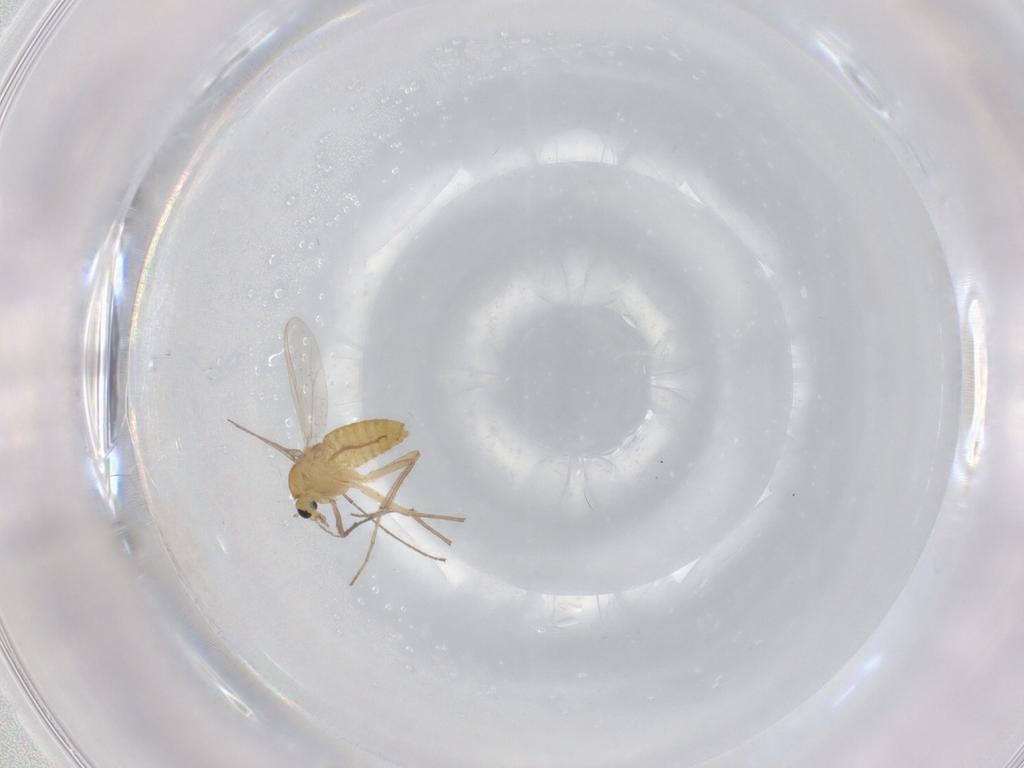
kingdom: Animalia
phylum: Arthropoda
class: Insecta
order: Diptera
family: Chironomidae
